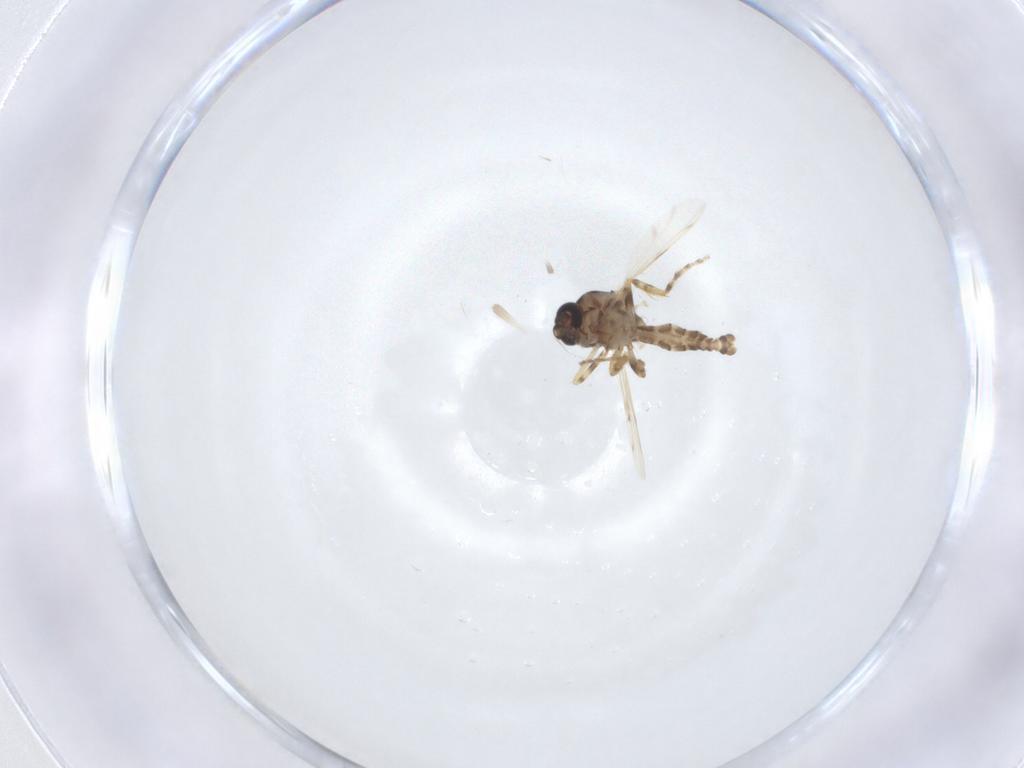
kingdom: Animalia
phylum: Arthropoda
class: Insecta
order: Diptera
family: Ceratopogonidae
